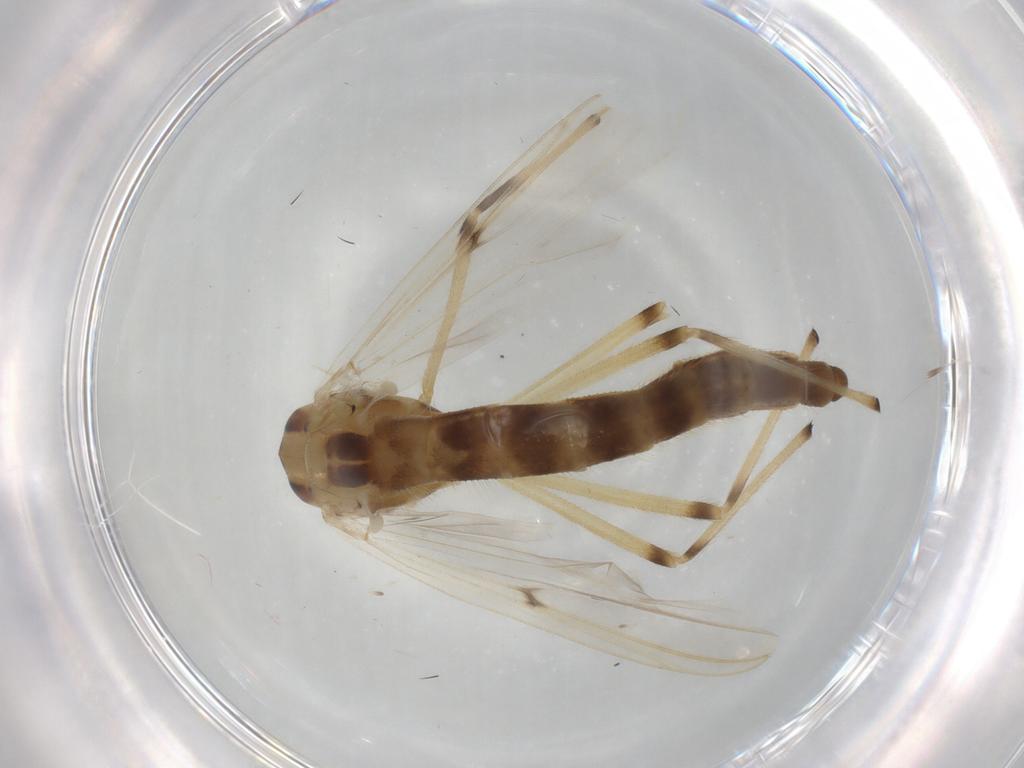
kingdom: Animalia
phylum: Arthropoda
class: Insecta
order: Diptera
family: Chironomidae
